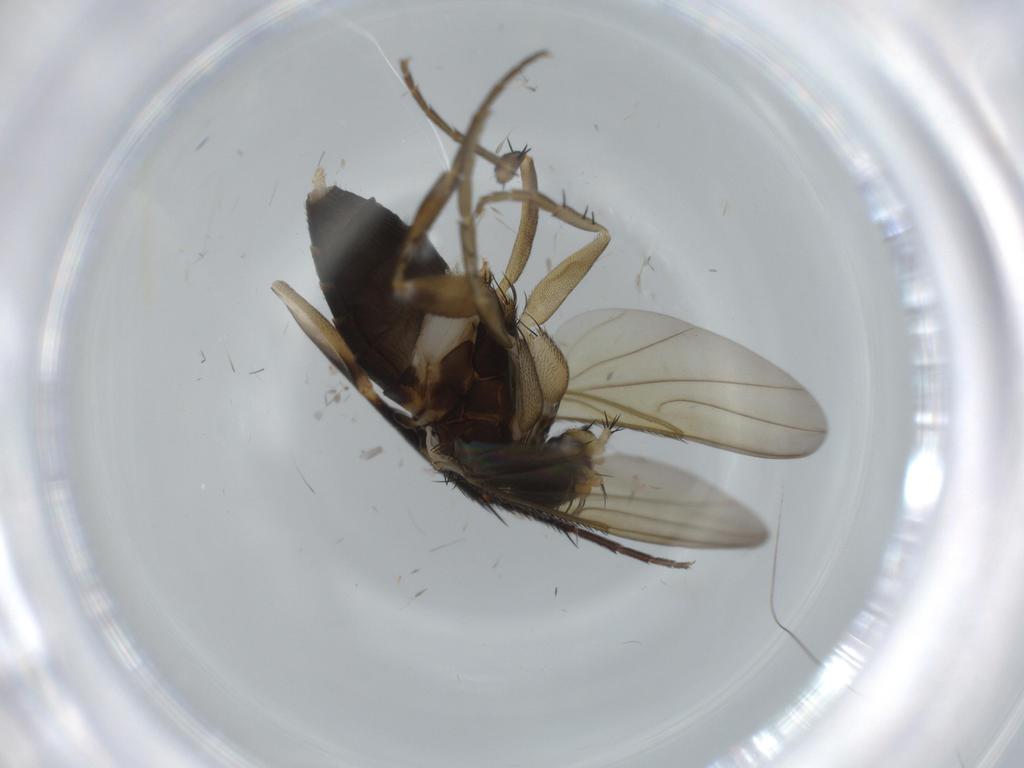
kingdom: Animalia
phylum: Arthropoda
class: Insecta
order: Diptera
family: Phoridae
